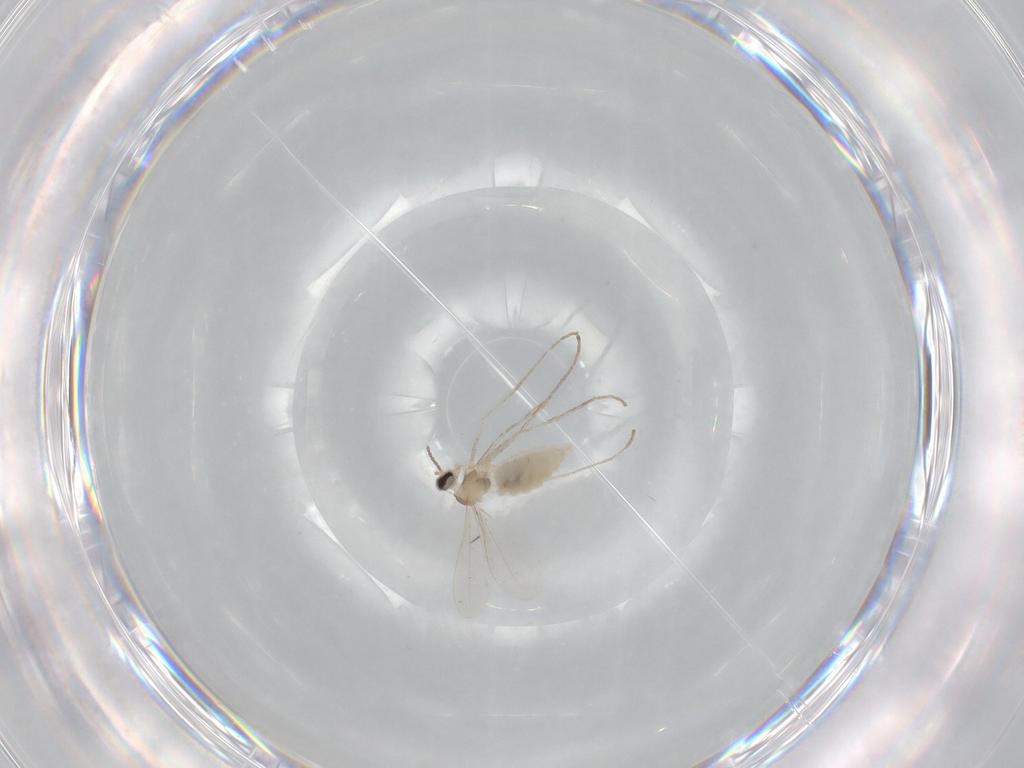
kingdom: Animalia
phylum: Arthropoda
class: Insecta
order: Diptera
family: Cecidomyiidae
